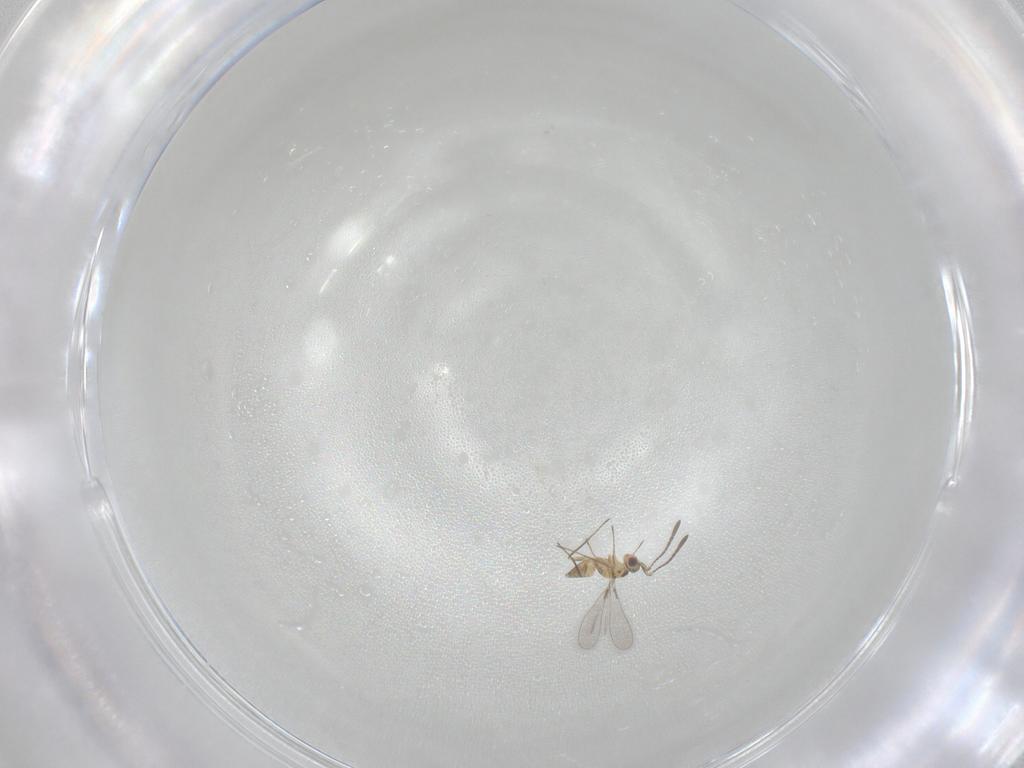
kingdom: Animalia
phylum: Arthropoda
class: Insecta
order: Hymenoptera
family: Mymaridae
